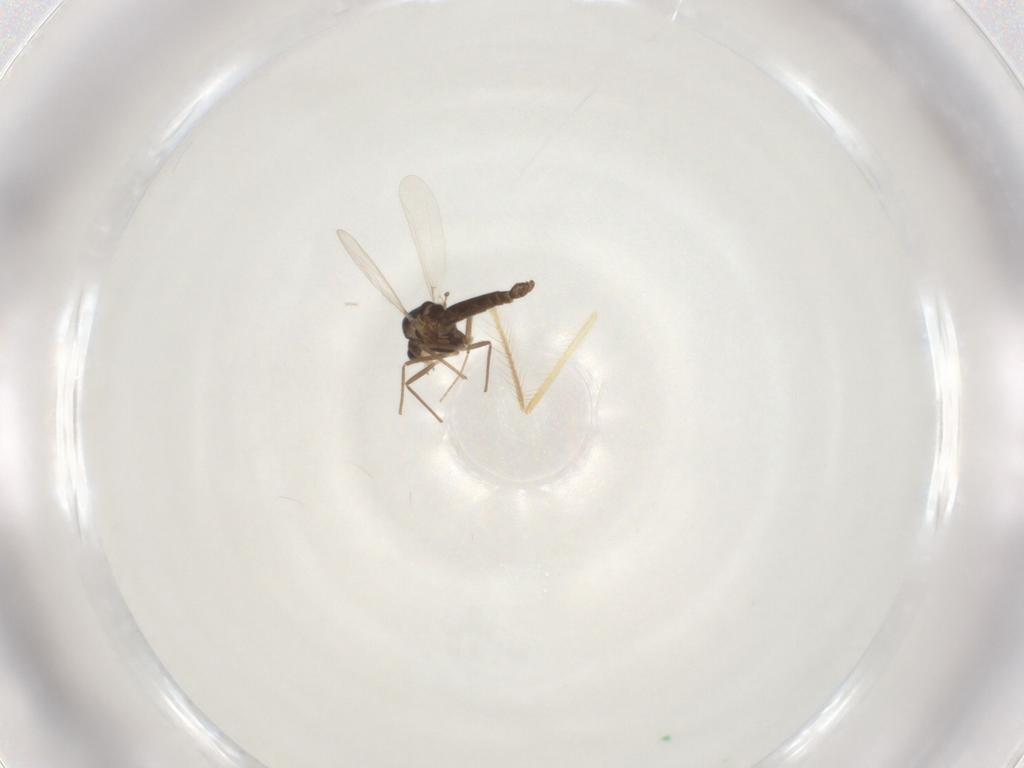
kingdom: Animalia
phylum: Arthropoda
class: Insecta
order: Diptera
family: Chironomidae
